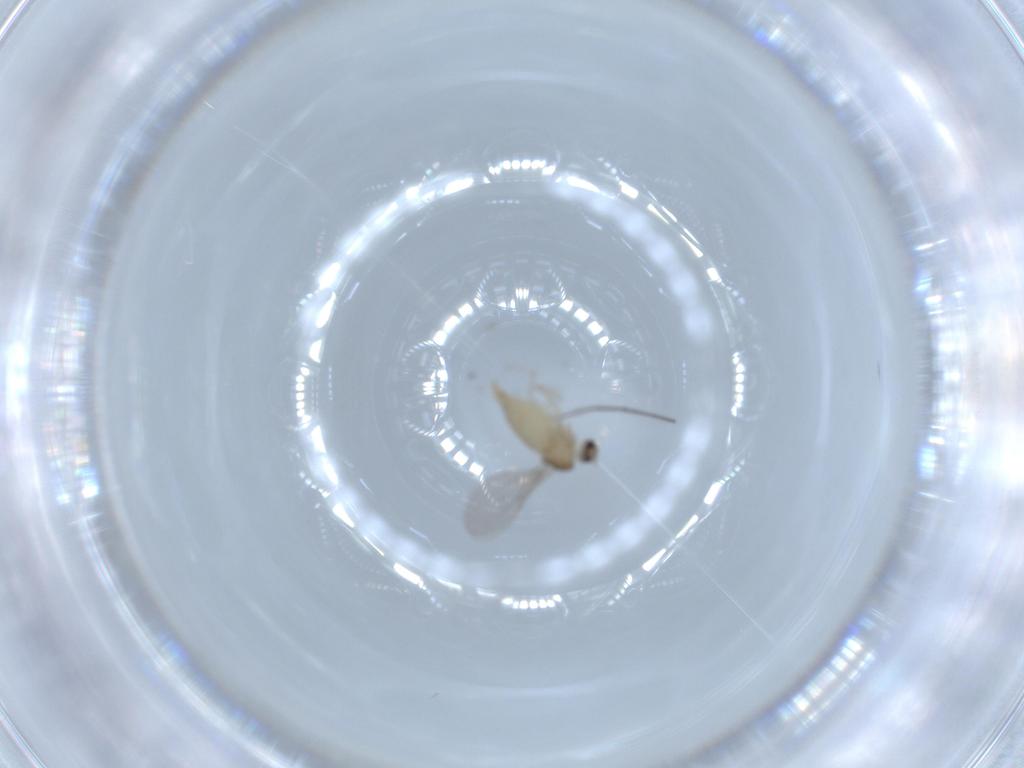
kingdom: Animalia
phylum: Arthropoda
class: Insecta
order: Diptera
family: Cecidomyiidae
